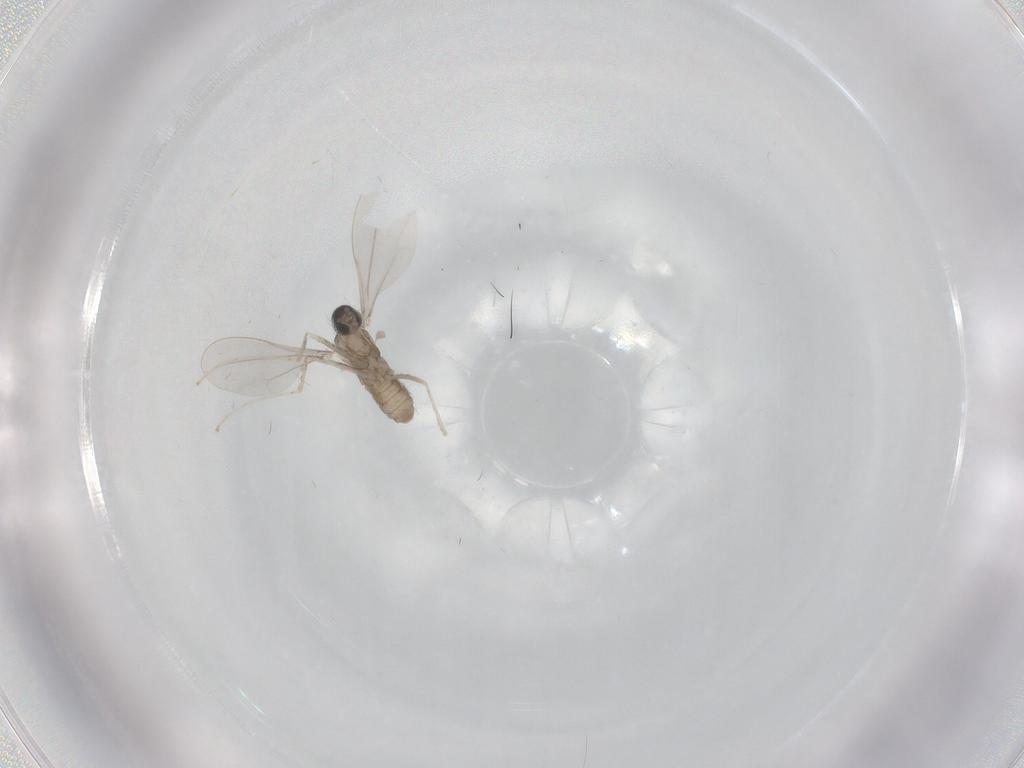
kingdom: Animalia
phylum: Arthropoda
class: Insecta
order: Diptera
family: Cecidomyiidae
